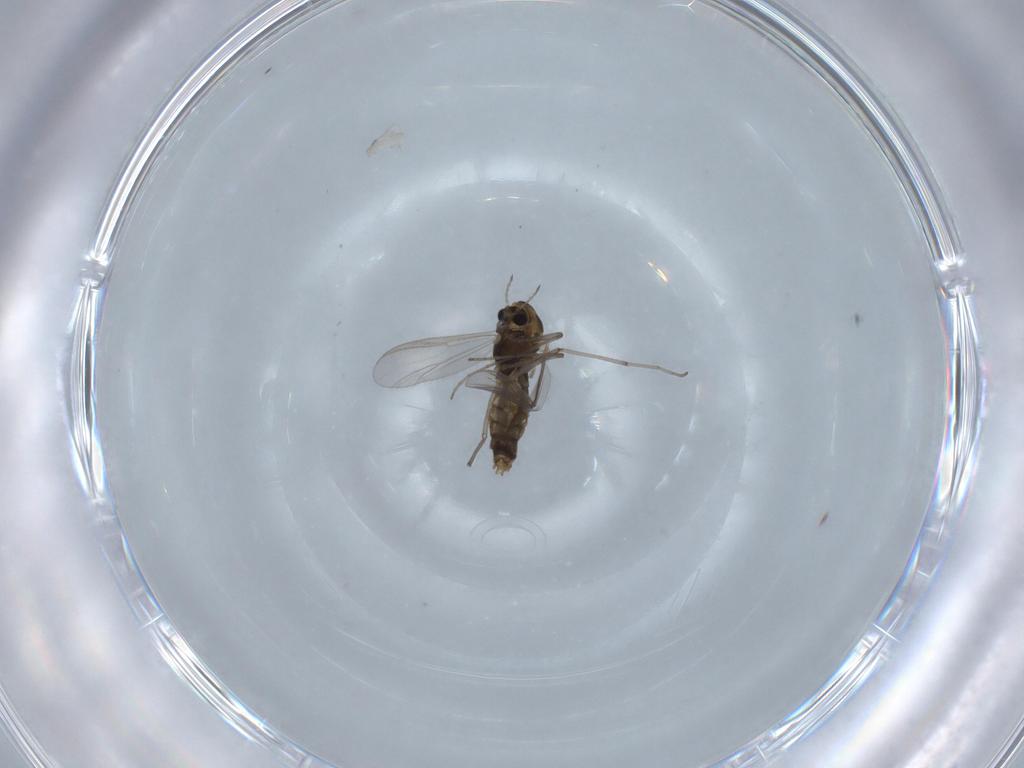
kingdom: Animalia
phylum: Arthropoda
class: Insecta
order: Diptera
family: Chironomidae
